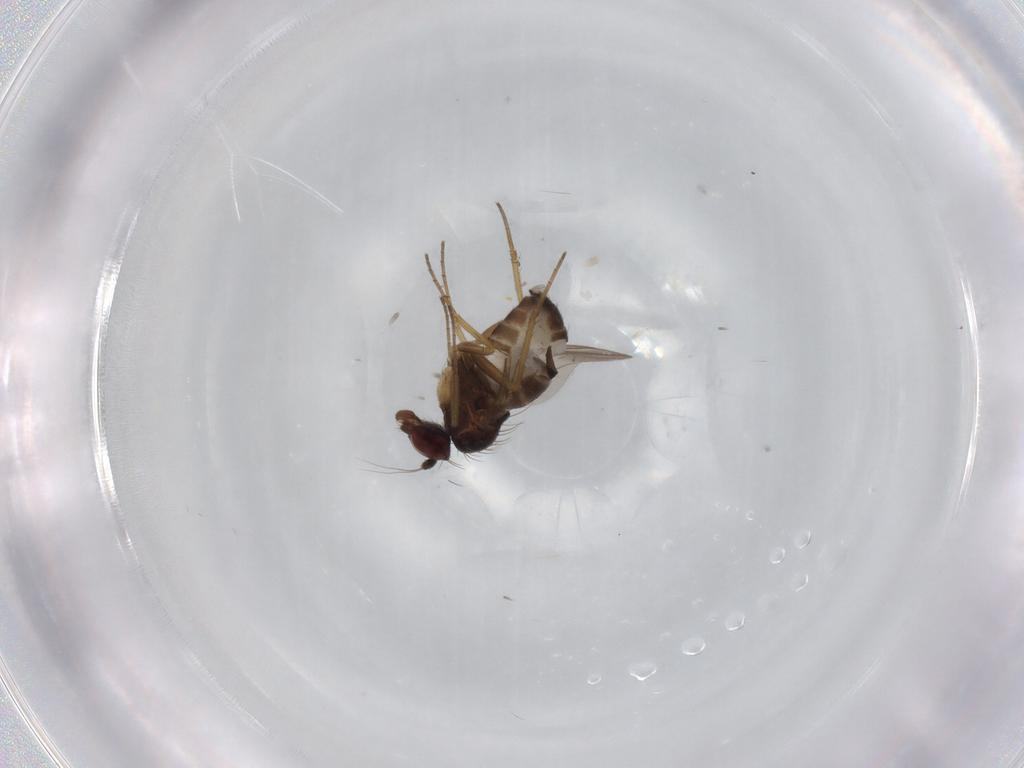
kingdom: Animalia
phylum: Arthropoda
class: Insecta
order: Diptera
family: Dolichopodidae
